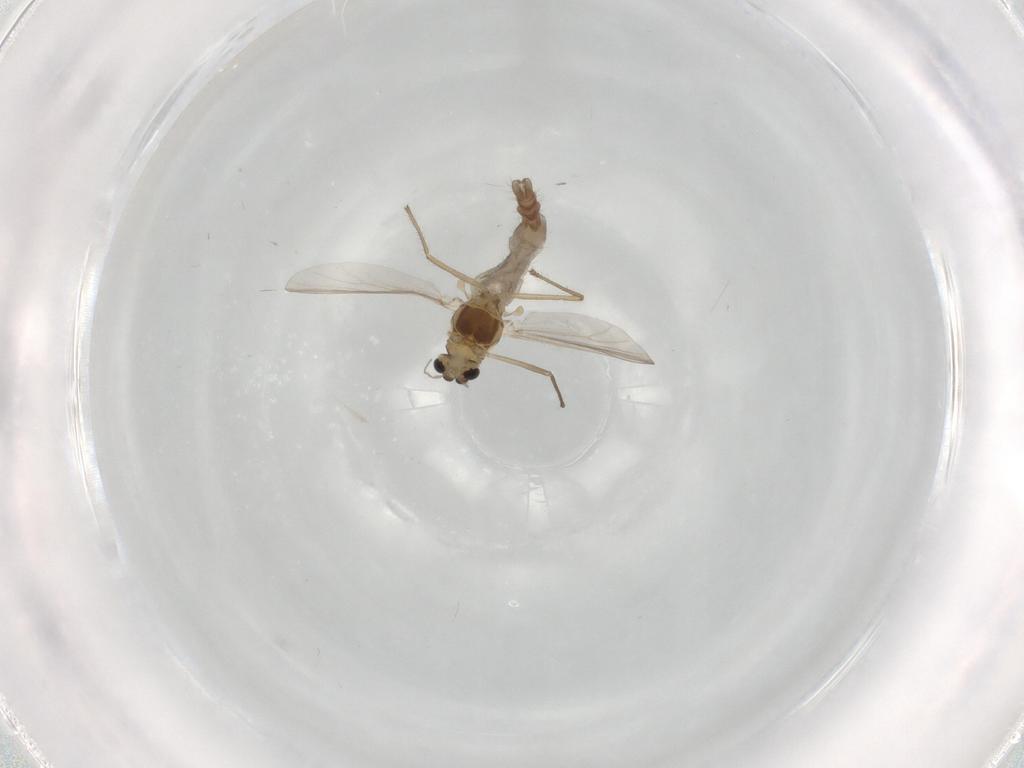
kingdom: Animalia
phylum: Arthropoda
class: Insecta
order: Diptera
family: Chironomidae
